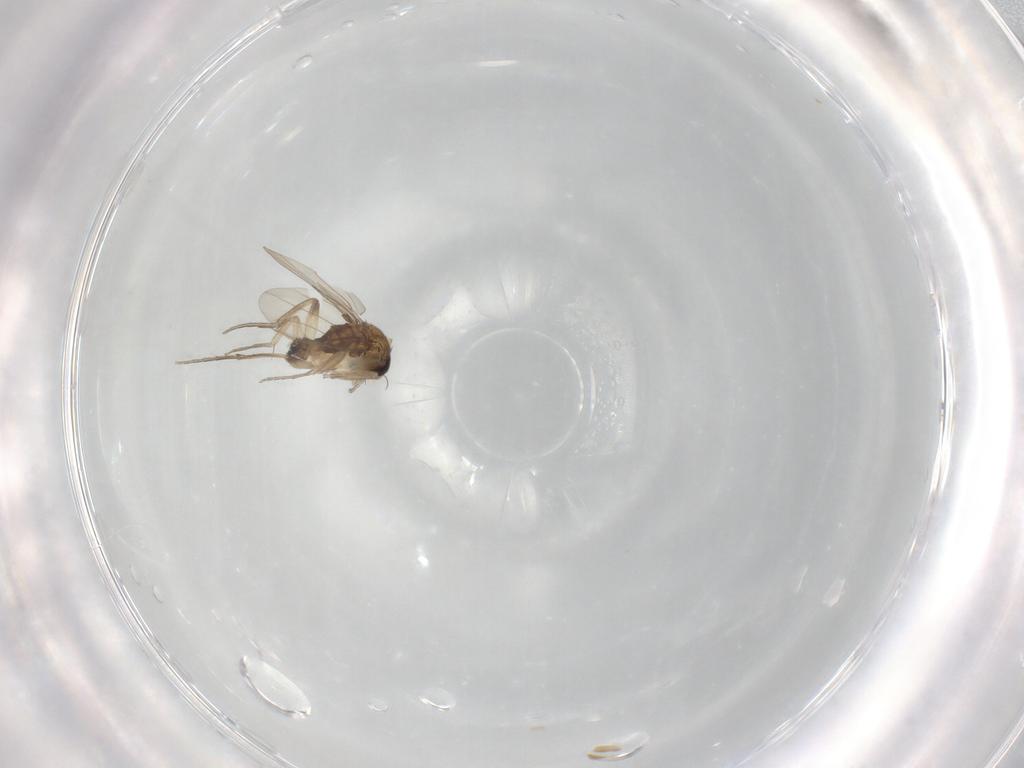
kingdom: Animalia
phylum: Arthropoda
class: Insecta
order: Diptera
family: Phoridae
